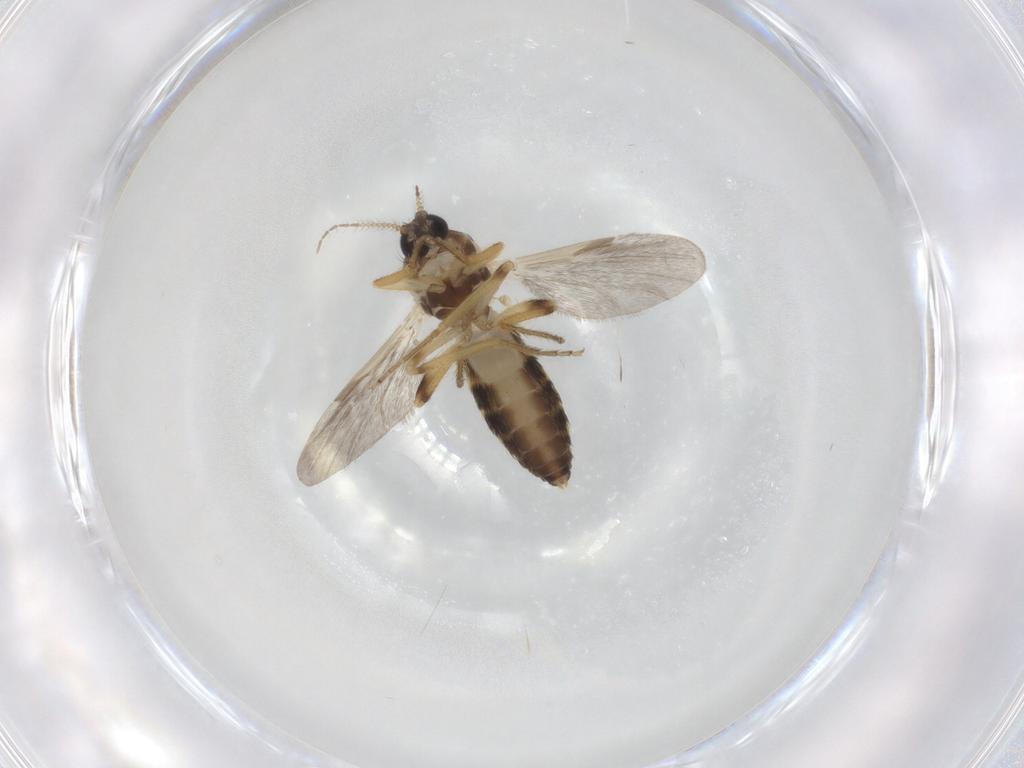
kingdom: Animalia
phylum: Arthropoda
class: Insecta
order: Diptera
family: Ceratopogonidae
